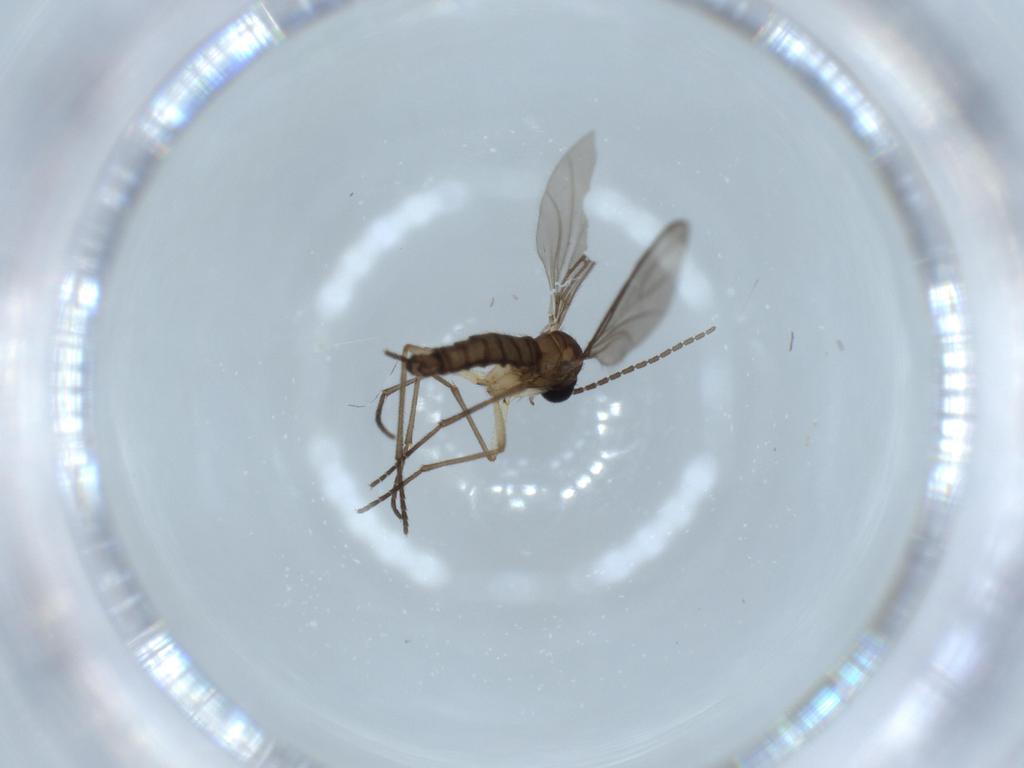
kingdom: Animalia
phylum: Arthropoda
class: Insecta
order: Diptera
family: Sciaridae
